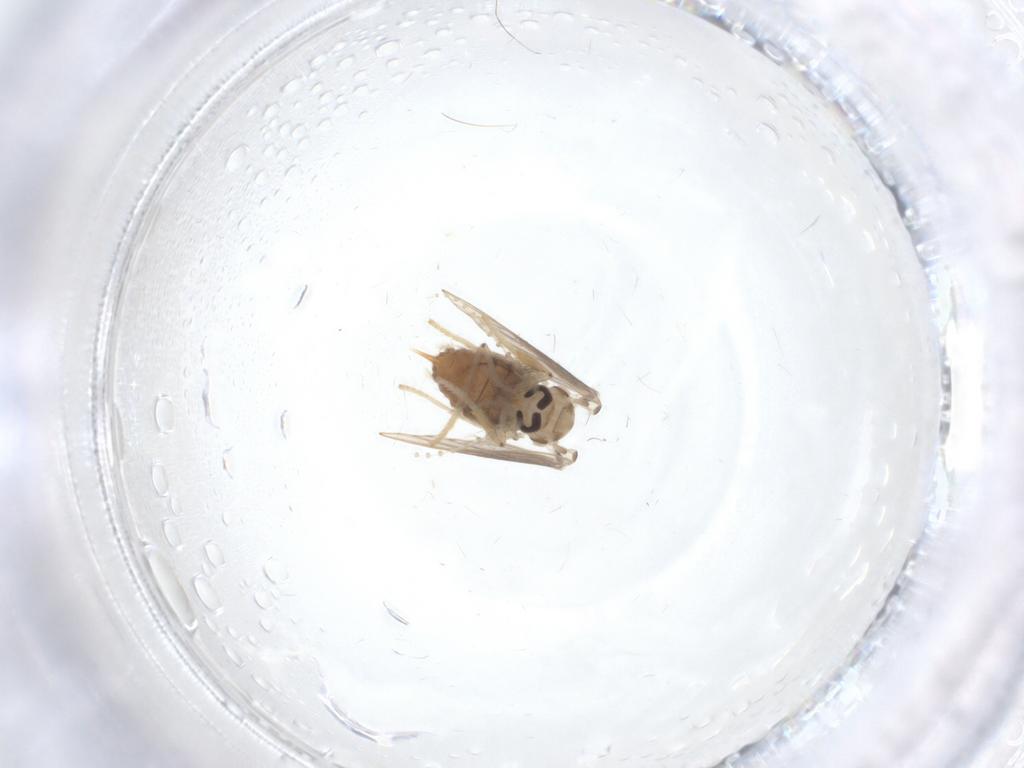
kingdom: Animalia
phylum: Arthropoda
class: Insecta
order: Diptera
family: Psychodidae
